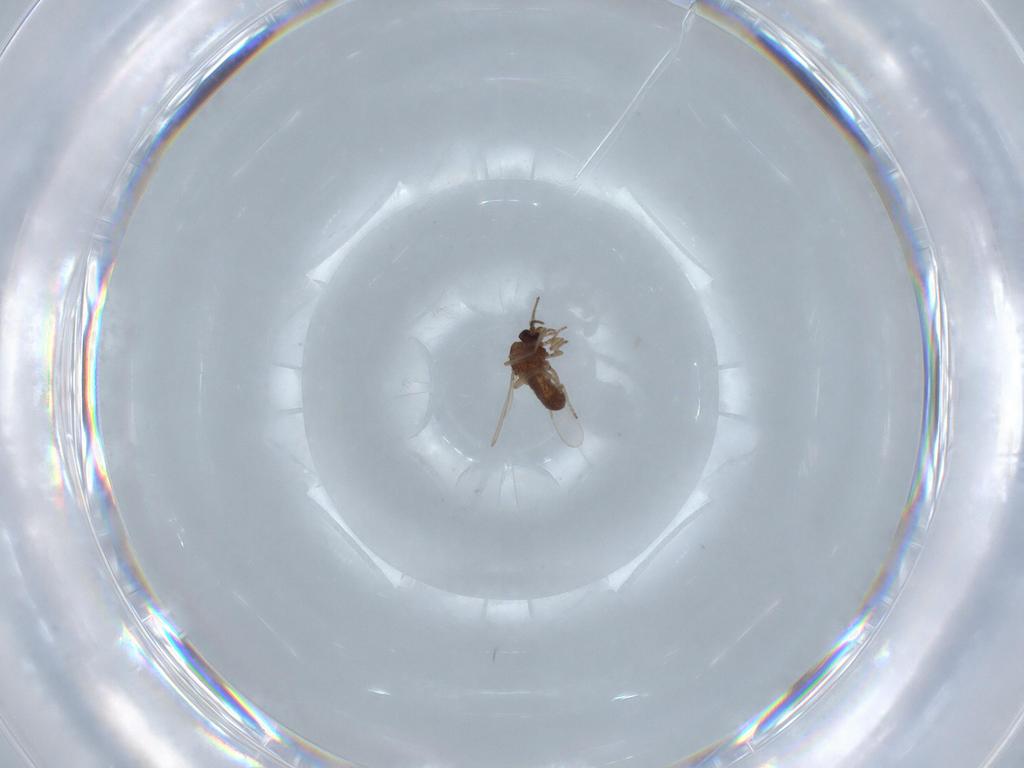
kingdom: Animalia
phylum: Arthropoda
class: Insecta
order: Diptera
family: Ceratopogonidae
